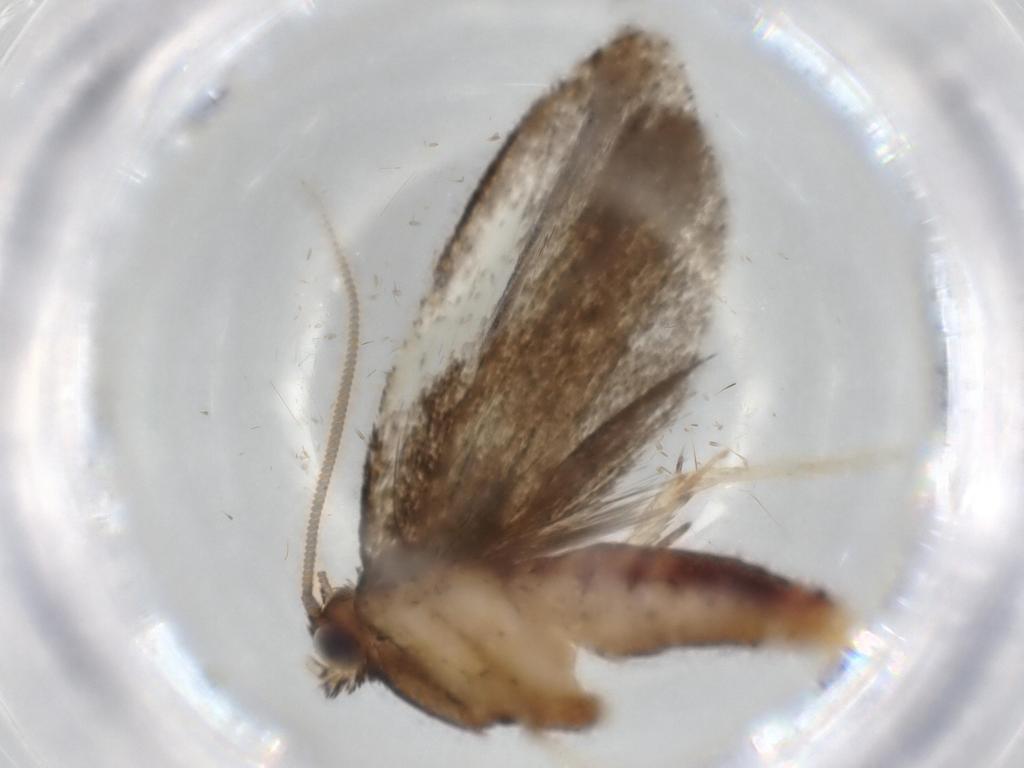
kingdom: Animalia
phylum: Arthropoda
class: Insecta
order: Lepidoptera
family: Tineidae
